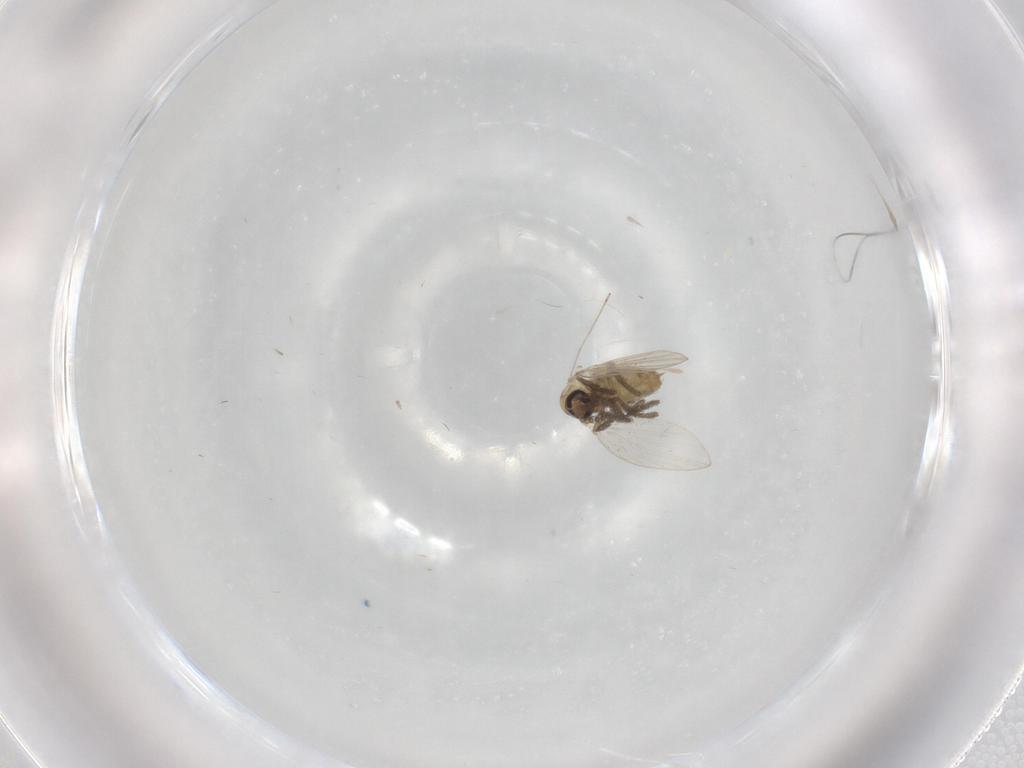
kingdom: Animalia
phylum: Arthropoda
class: Insecta
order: Diptera
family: Psychodidae
